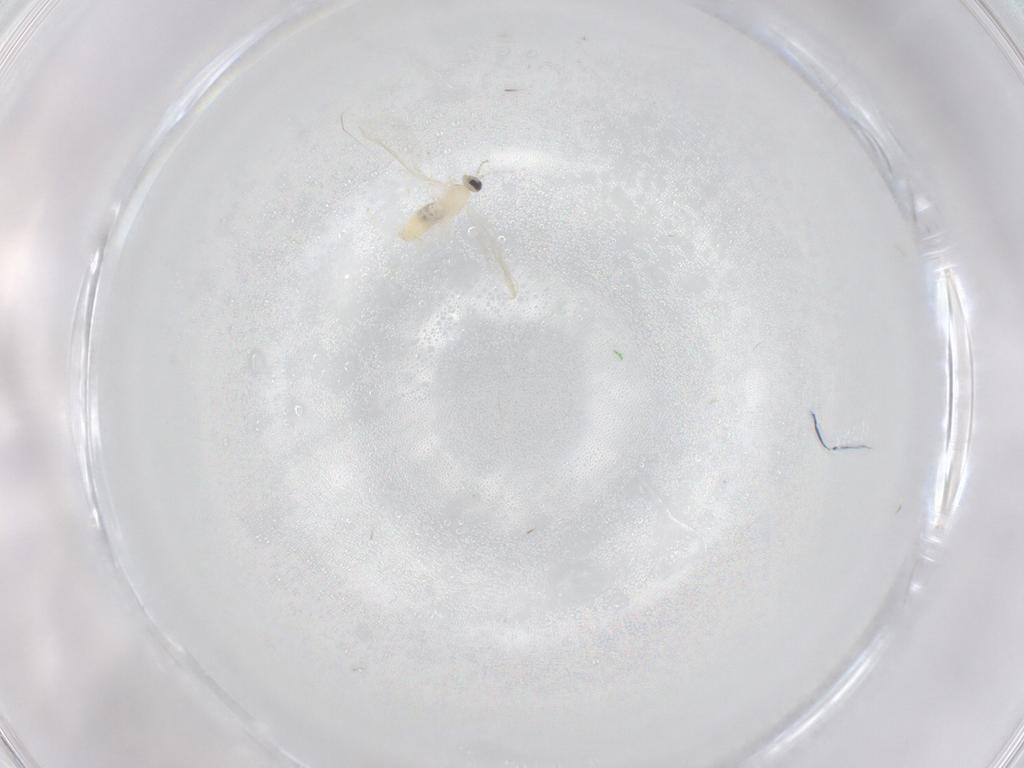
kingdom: Animalia
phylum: Arthropoda
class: Insecta
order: Diptera
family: Cecidomyiidae
